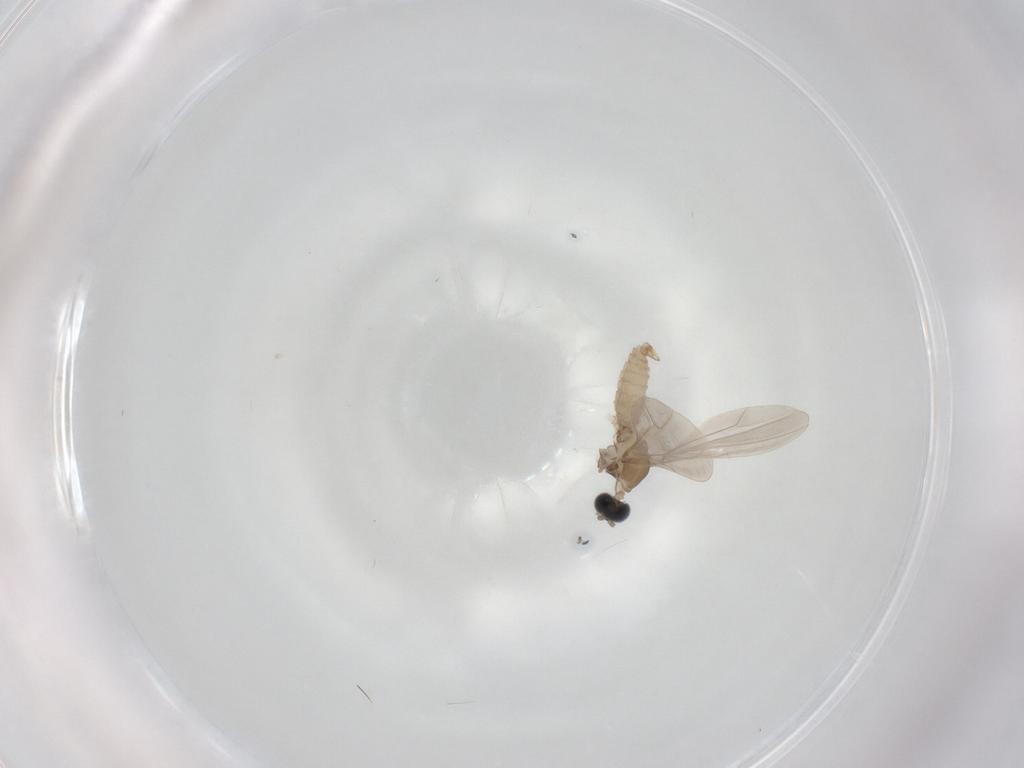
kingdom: Animalia
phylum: Arthropoda
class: Insecta
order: Diptera
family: Cecidomyiidae
